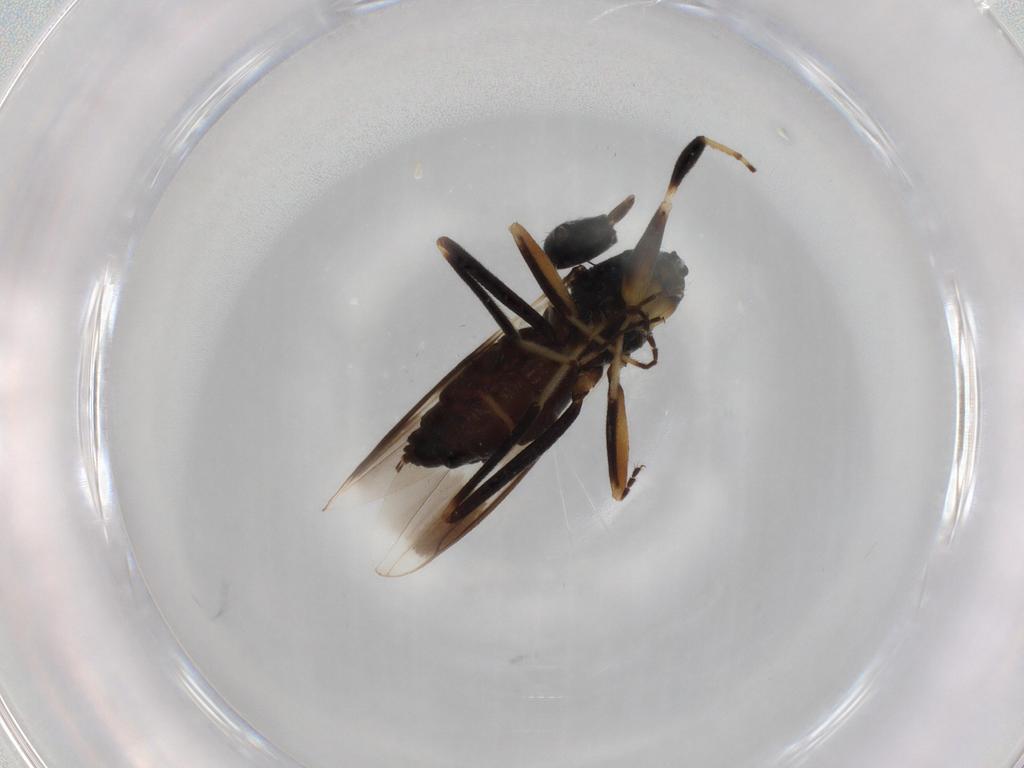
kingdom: Animalia
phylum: Arthropoda
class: Insecta
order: Diptera
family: Hybotidae
